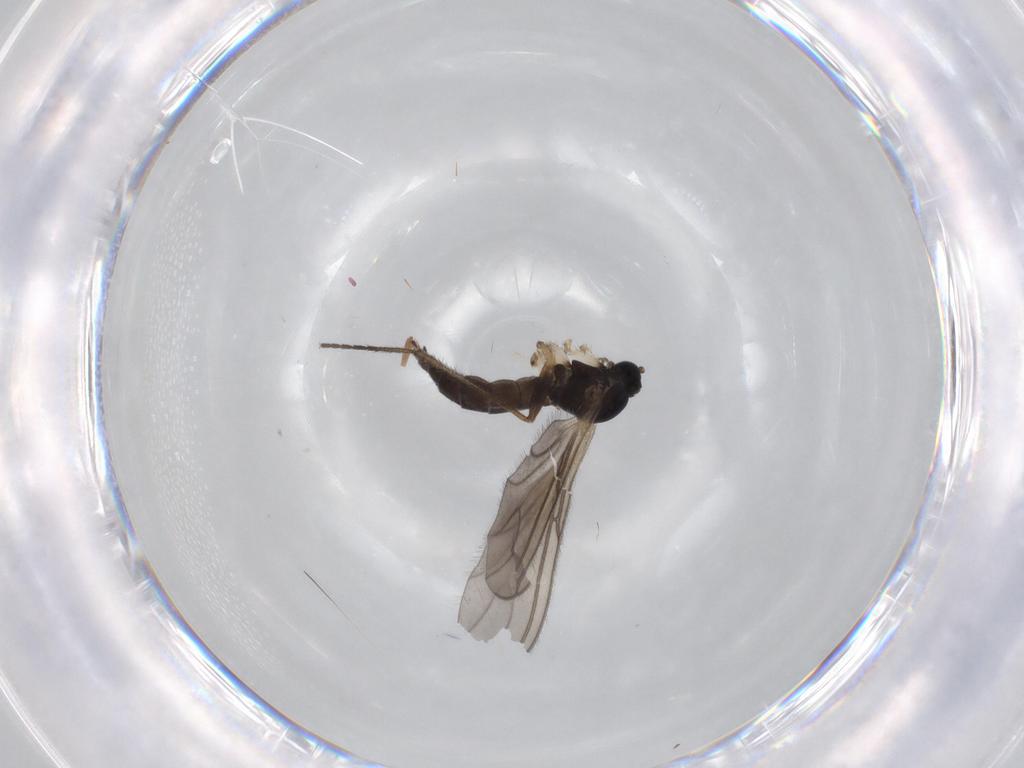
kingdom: Animalia
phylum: Arthropoda
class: Insecta
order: Diptera
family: Sciaridae
